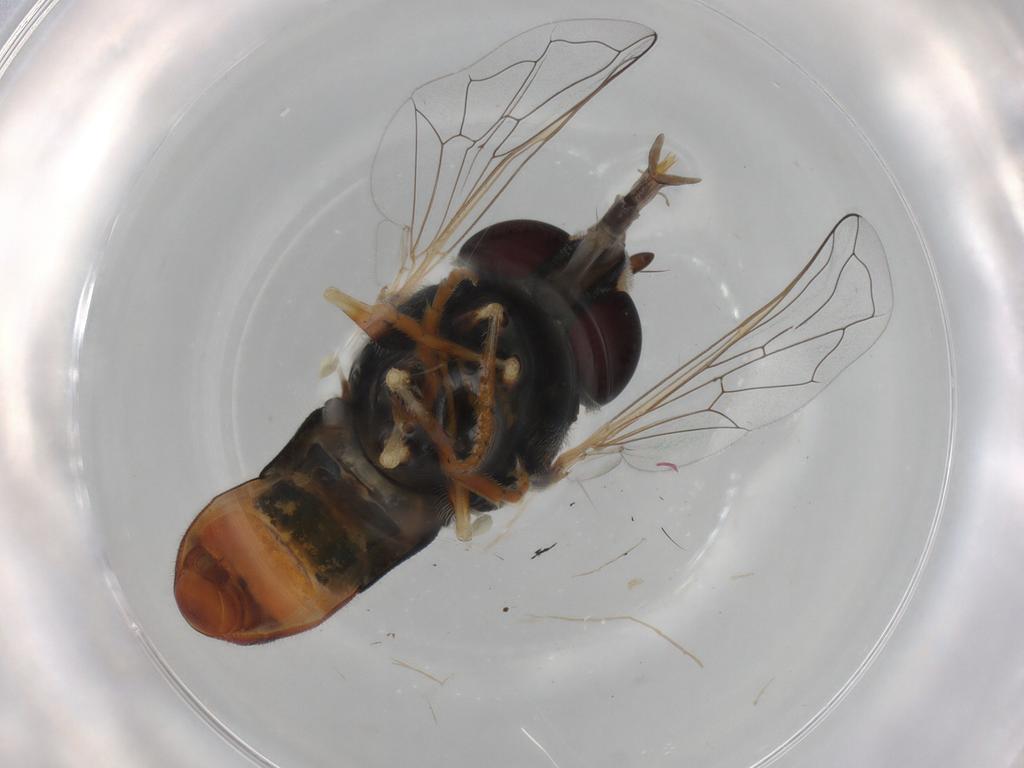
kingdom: Animalia
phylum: Arthropoda
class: Insecta
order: Diptera
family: Syrphidae
